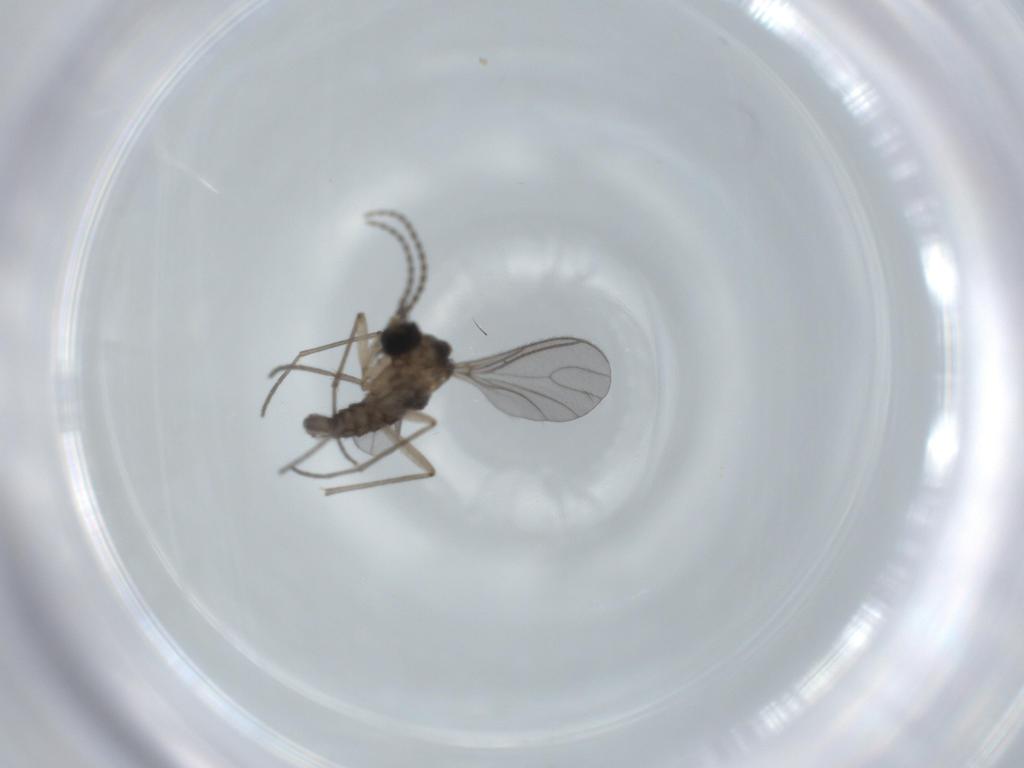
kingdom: Animalia
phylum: Arthropoda
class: Insecta
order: Diptera
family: Sciaridae
